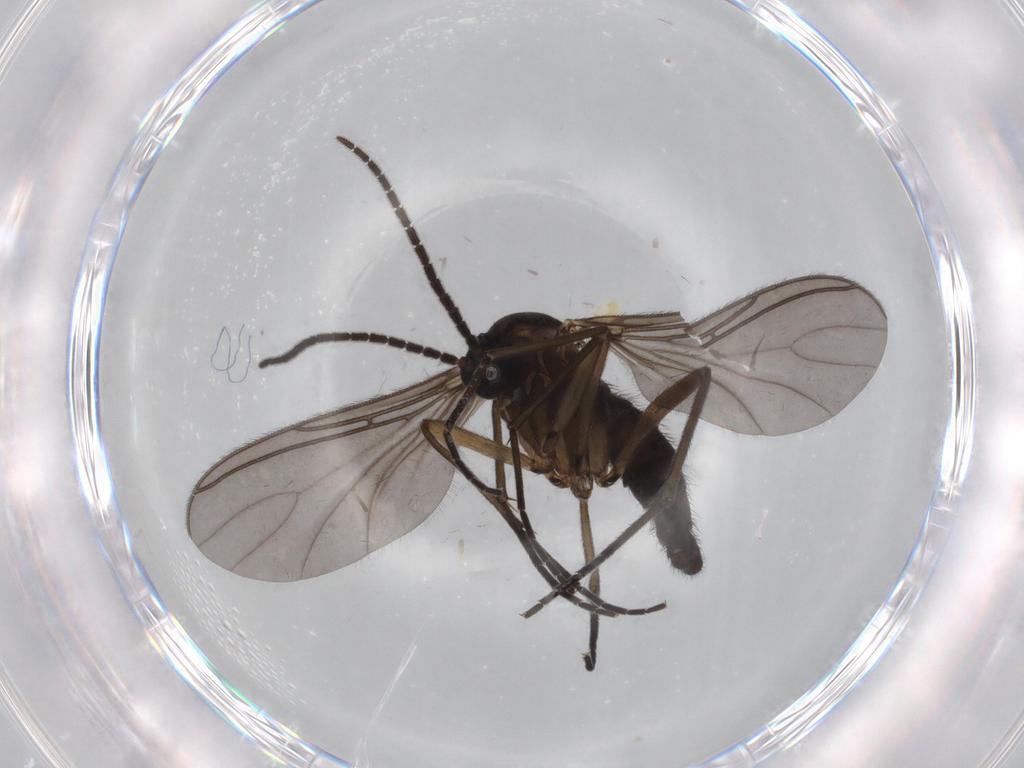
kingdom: Animalia
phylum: Arthropoda
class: Insecta
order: Diptera
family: Sciaridae
